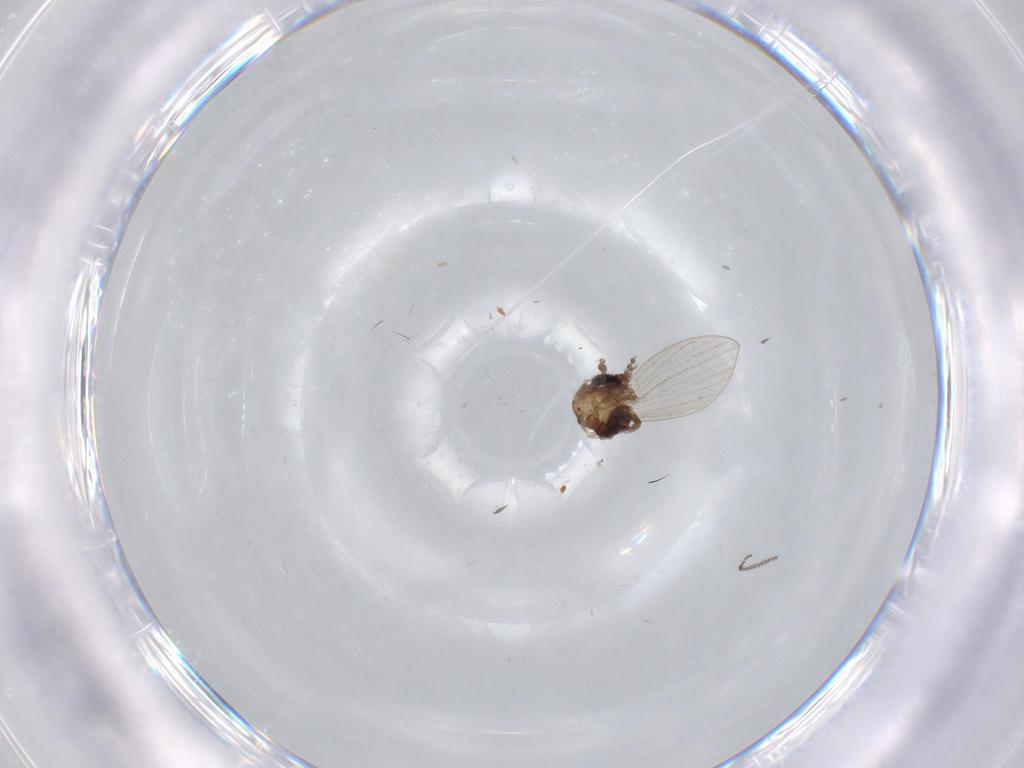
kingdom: Animalia
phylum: Arthropoda
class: Insecta
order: Diptera
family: Psychodidae
